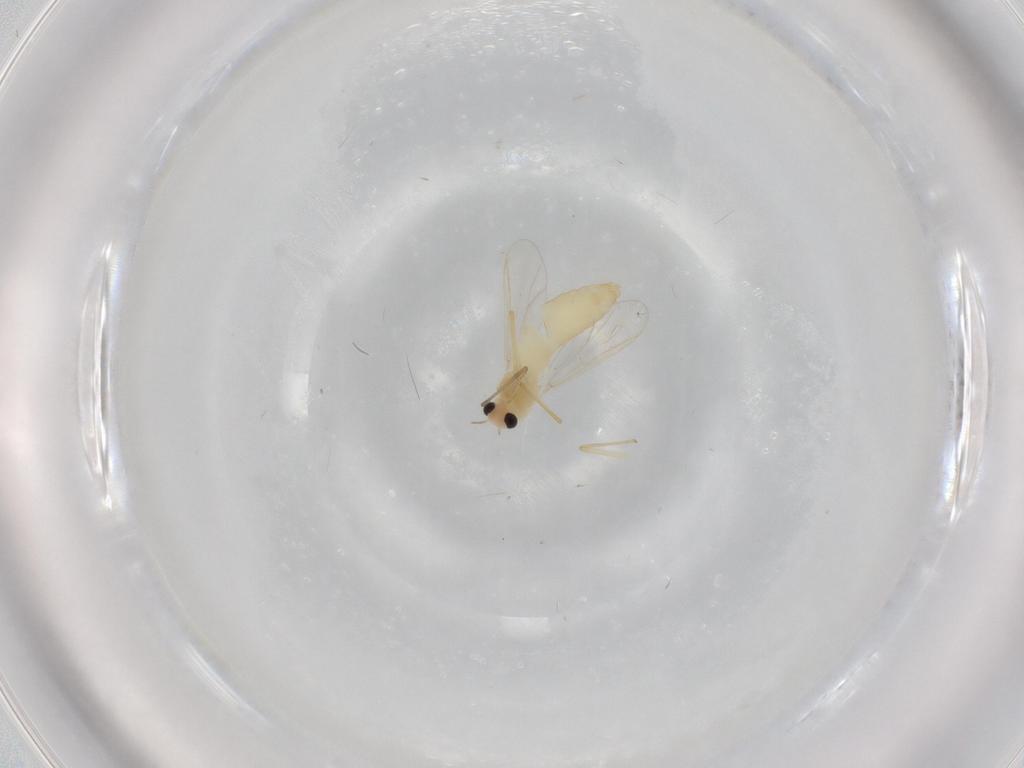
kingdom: Animalia
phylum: Arthropoda
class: Insecta
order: Diptera
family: Chironomidae
